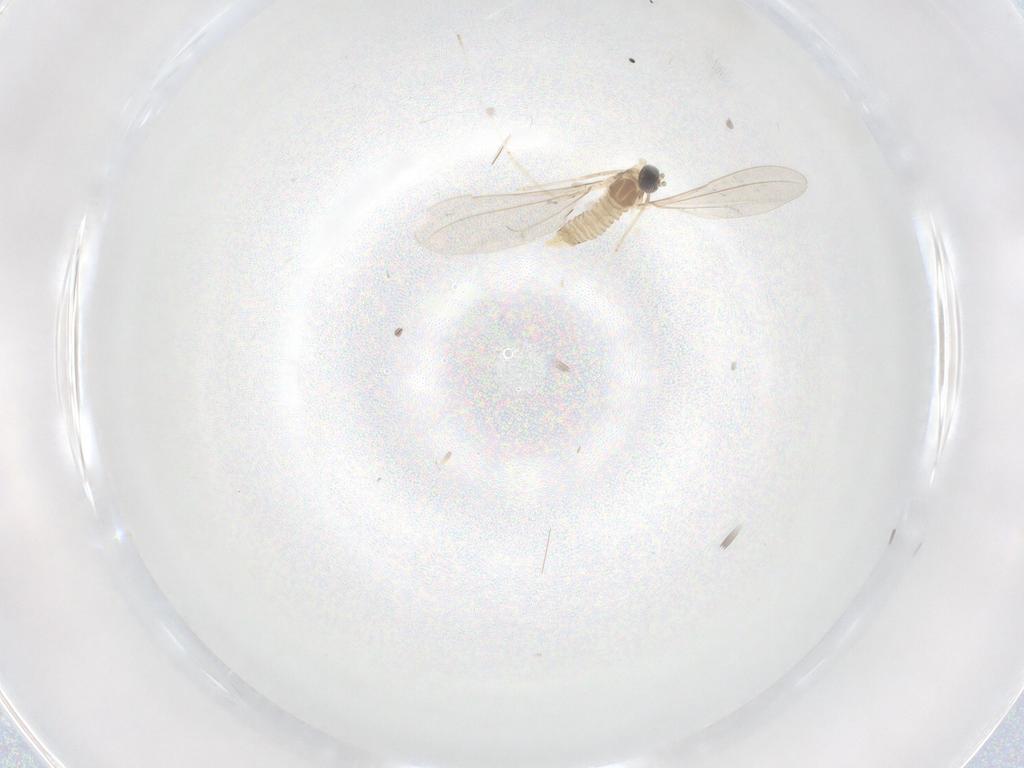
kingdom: Animalia
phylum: Arthropoda
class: Insecta
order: Diptera
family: Cecidomyiidae
